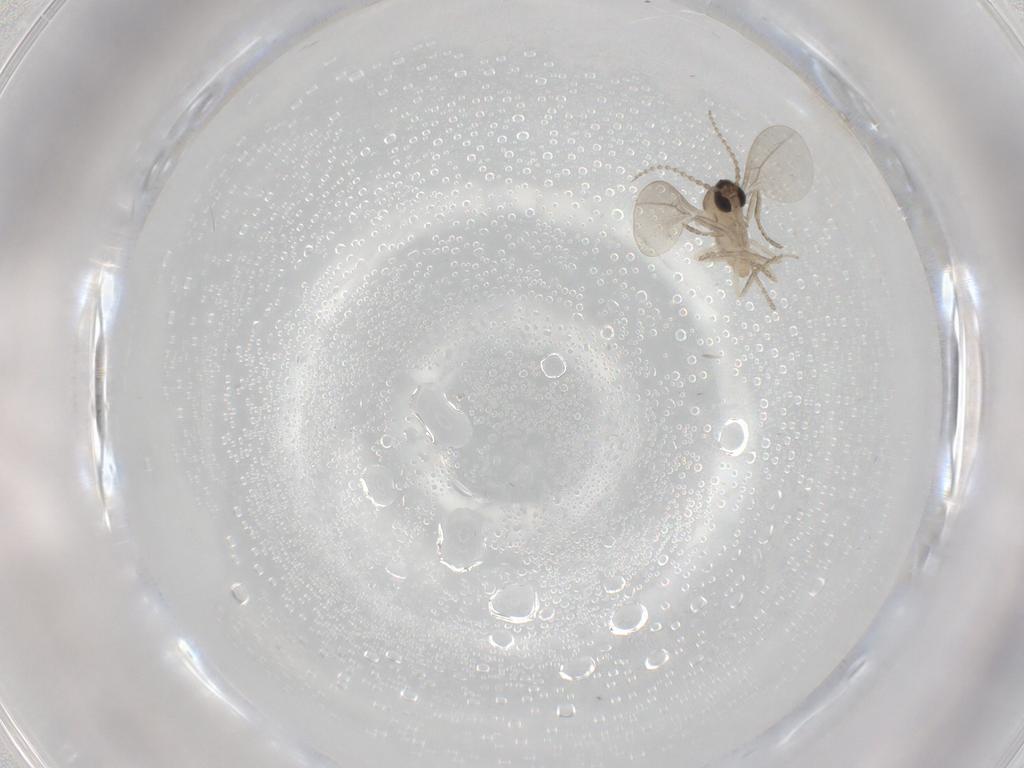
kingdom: Animalia
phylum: Arthropoda
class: Insecta
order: Diptera
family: Cecidomyiidae
